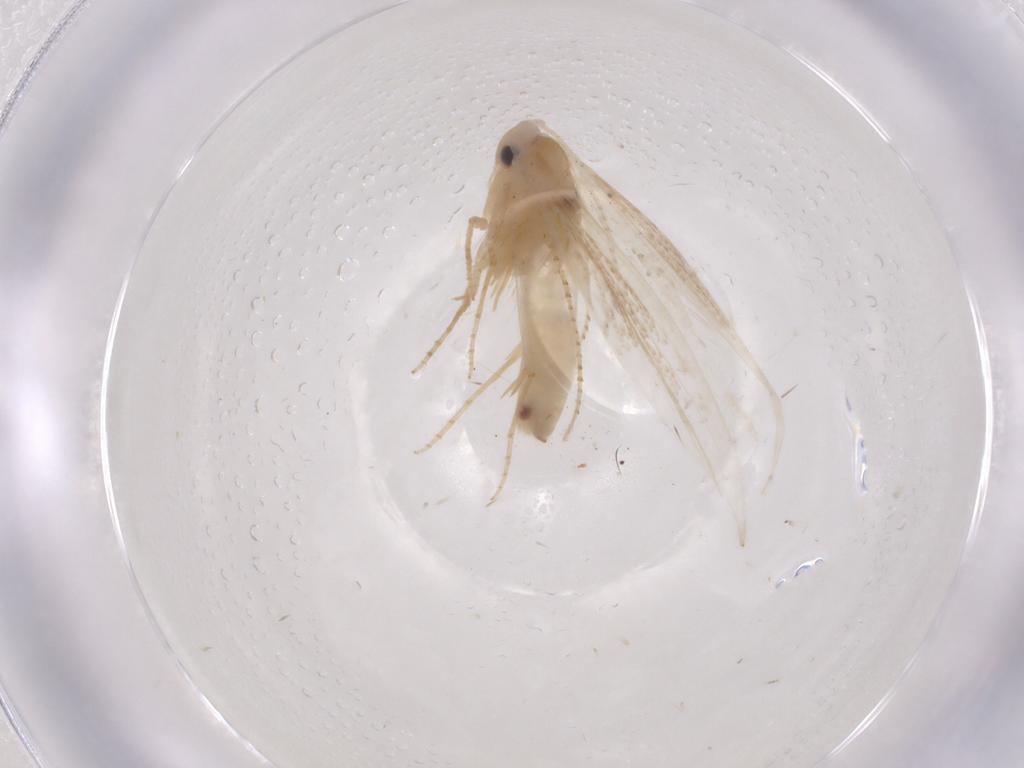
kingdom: Animalia
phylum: Arthropoda
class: Insecta
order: Lepidoptera
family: Bucculatricidae
